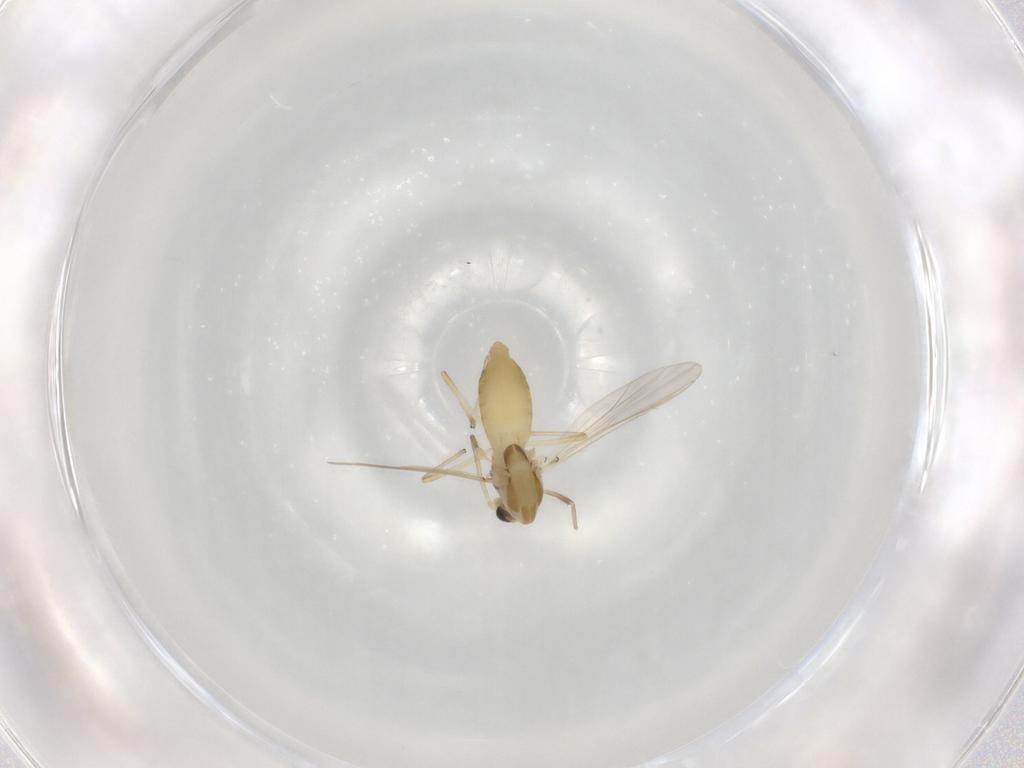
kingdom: Animalia
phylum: Arthropoda
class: Insecta
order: Diptera
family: Chironomidae
